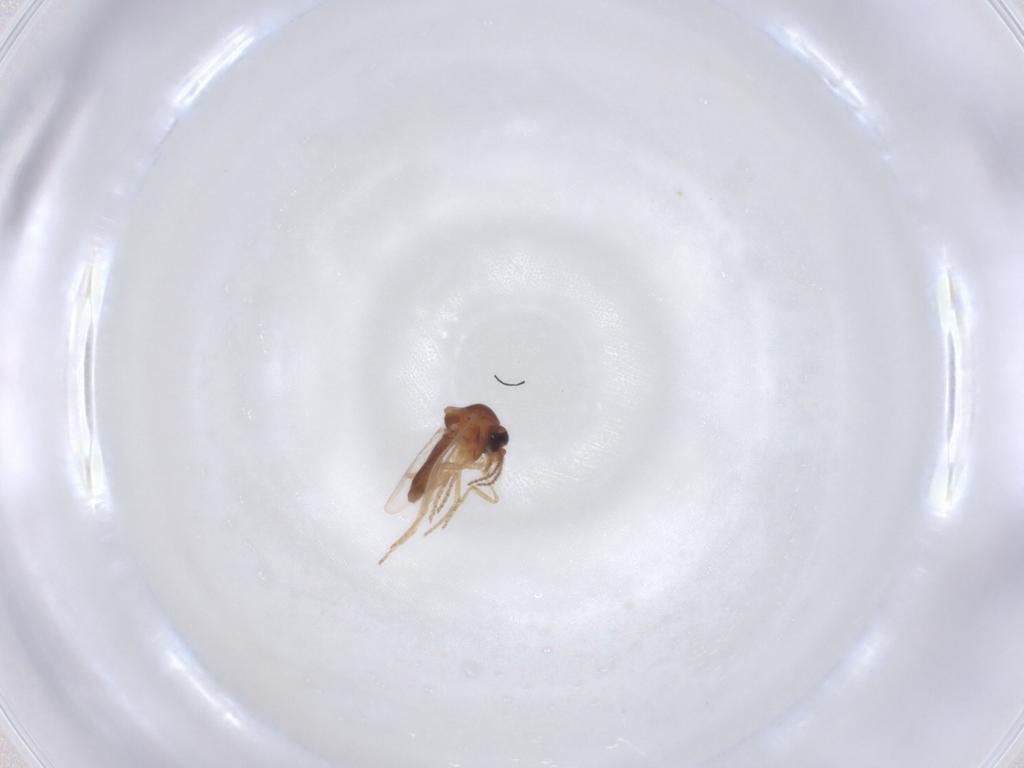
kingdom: Animalia
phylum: Arthropoda
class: Insecta
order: Diptera
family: Ceratopogonidae
